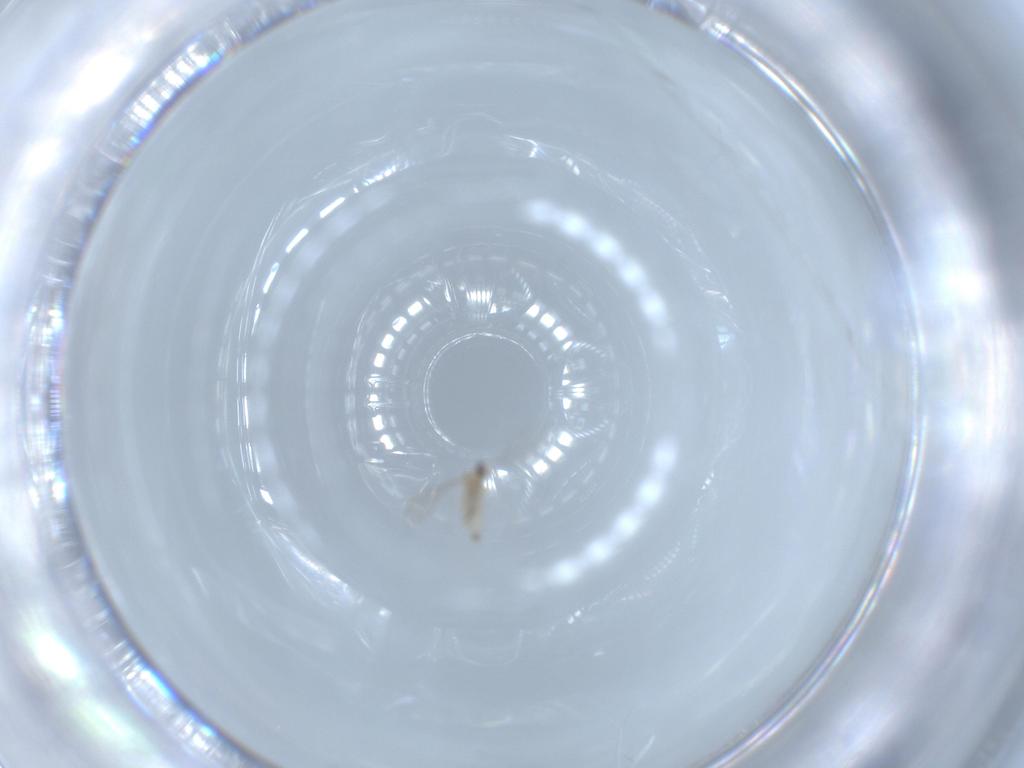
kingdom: Animalia
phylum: Arthropoda
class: Insecta
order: Diptera
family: Cecidomyiidae
